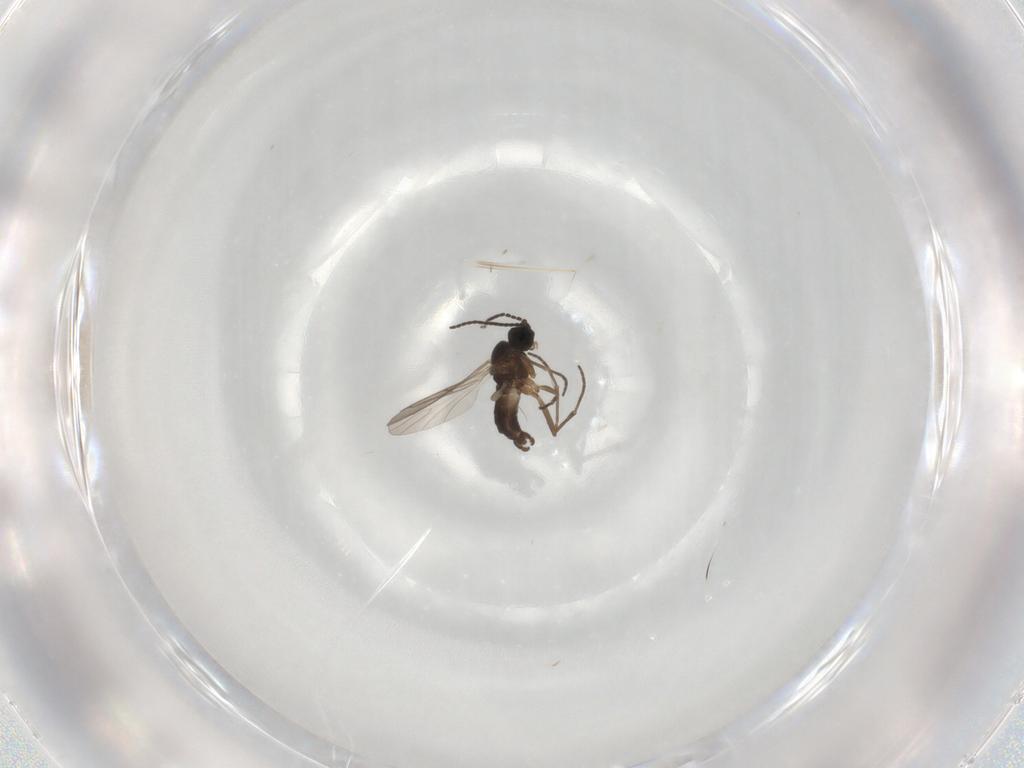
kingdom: Animalia
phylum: Arthropoda
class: Insecta
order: Diptera
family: Sciaridae
